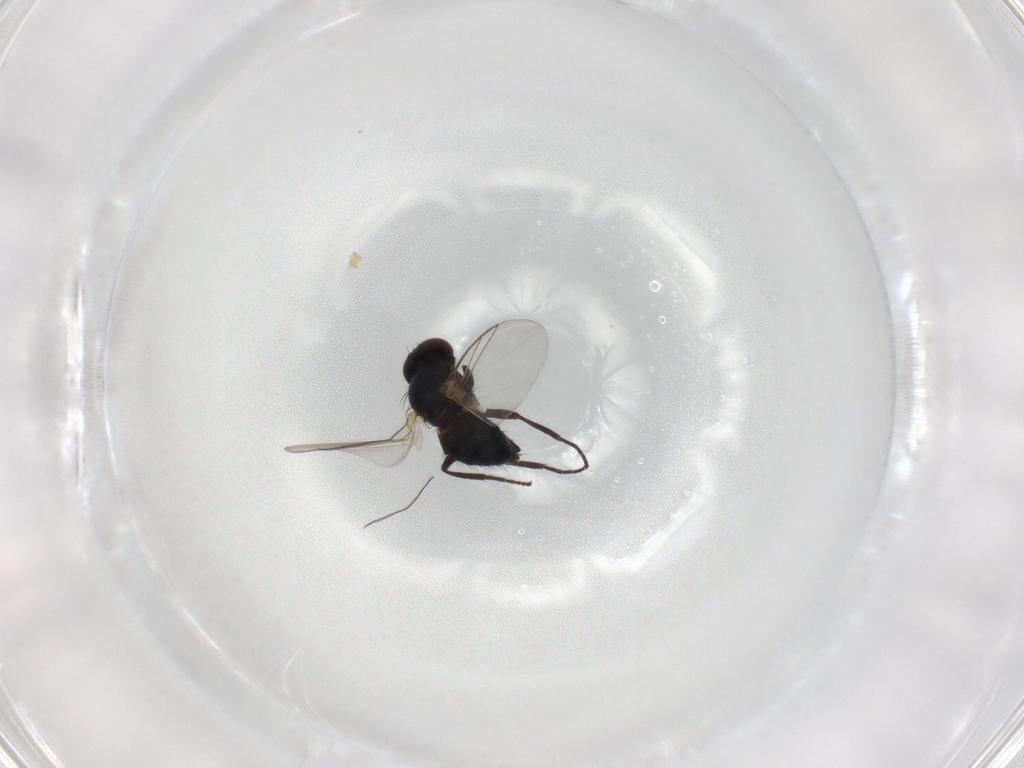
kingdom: Animalia
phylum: Arthropoda
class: Insecta
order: Diptera
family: Agromyzidae
